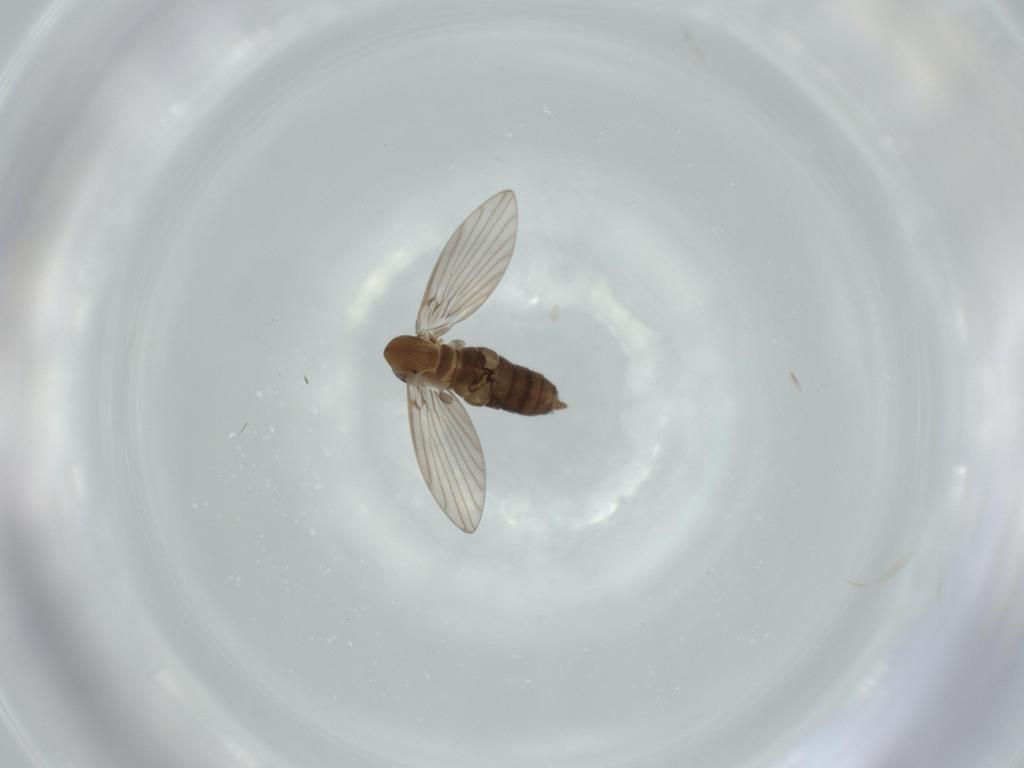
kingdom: Animalia
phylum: Arthropoda
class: Insecta
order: Diptera
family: Psychodidae
